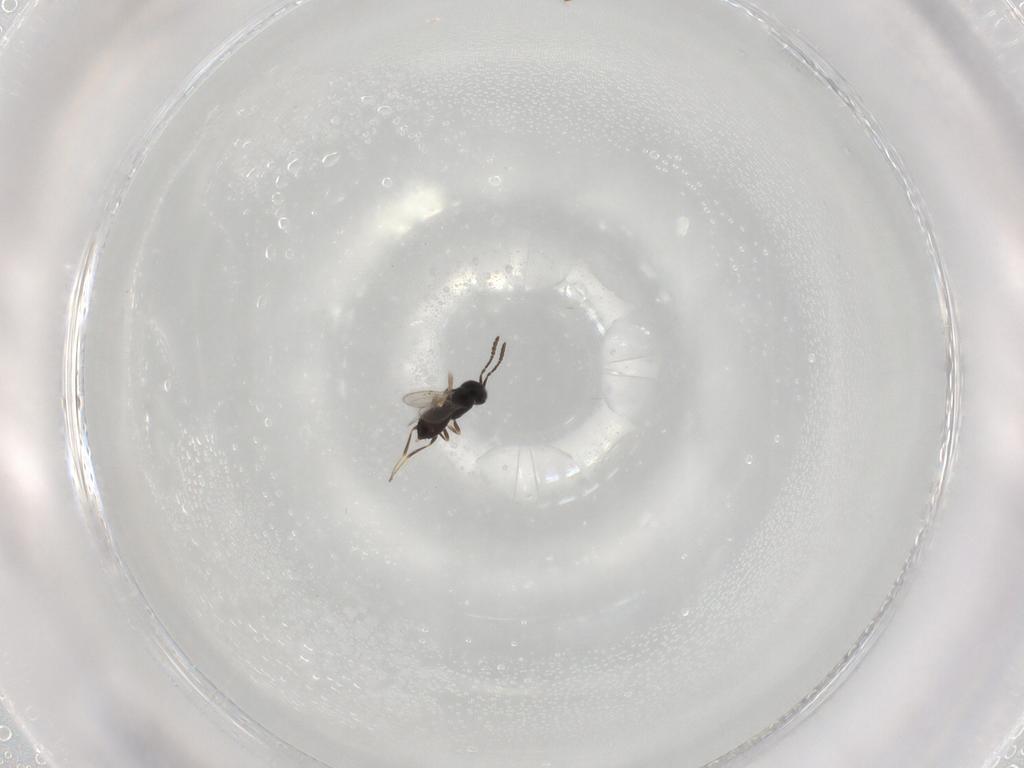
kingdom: Animalia
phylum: Arthropoda
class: Insecta
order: Hymenoptera
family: Scelionidae
